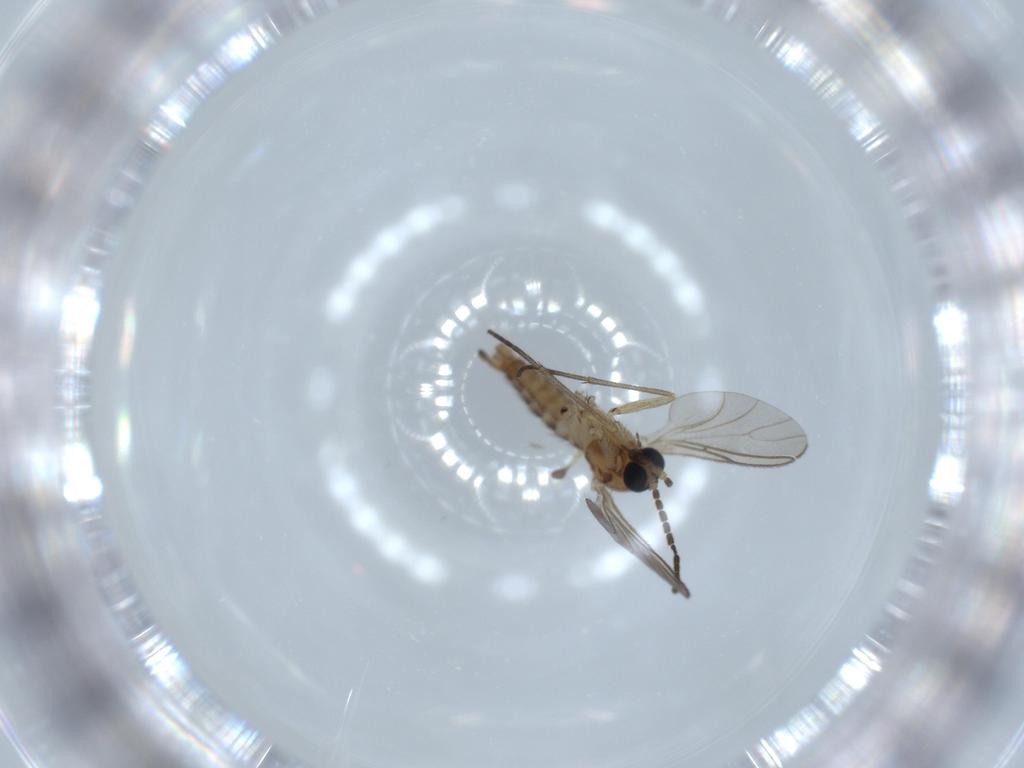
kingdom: Animalia
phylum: Arthropoda
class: Insecta
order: Diptera
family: Sciaridae
